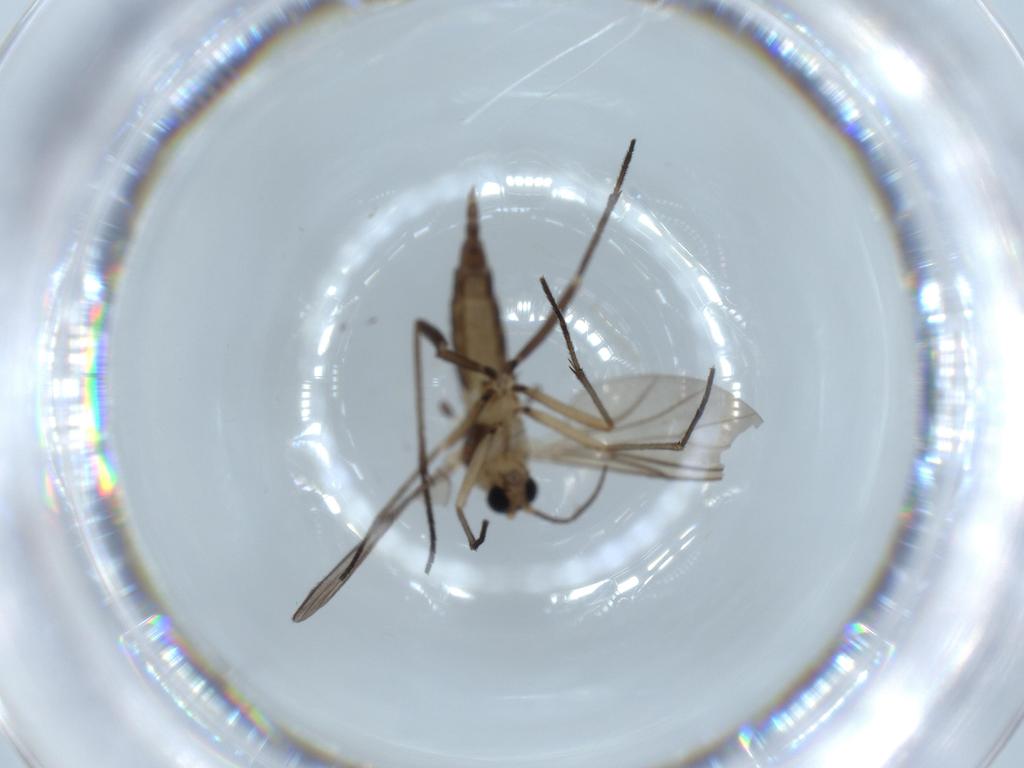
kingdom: Animalia
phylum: Arthropoda
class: Insecta
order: Diptera
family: Sciaridae
